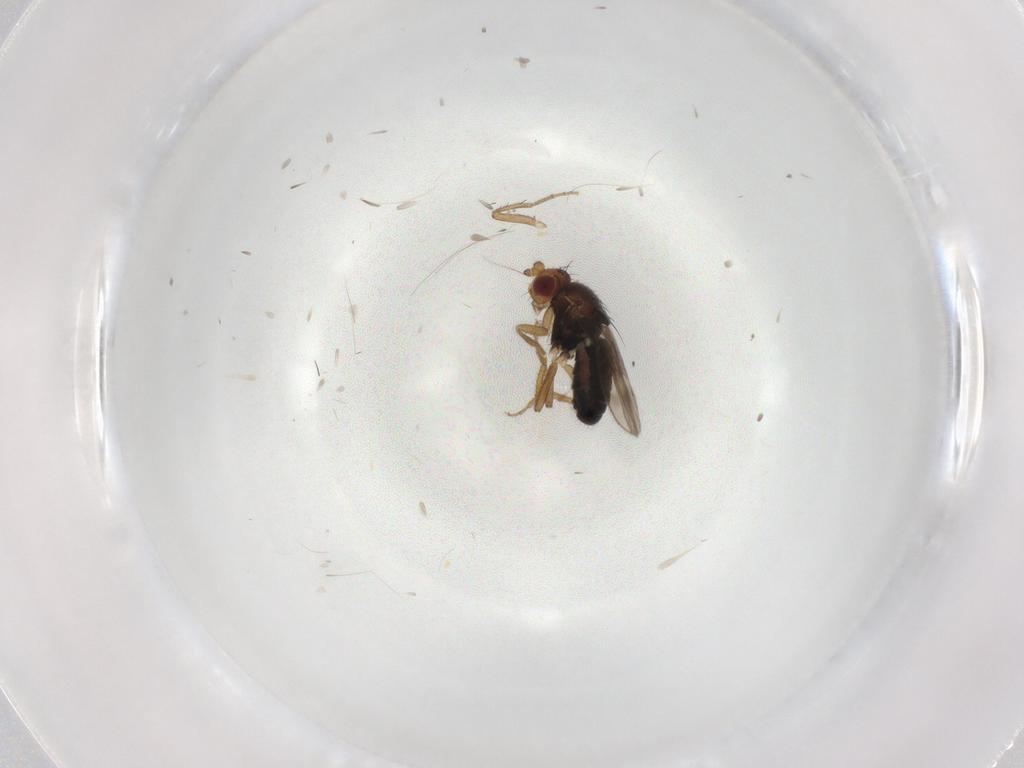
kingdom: Animalia
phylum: Arthropoda
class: Insecta
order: Diptera
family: Sphaeroceridae
